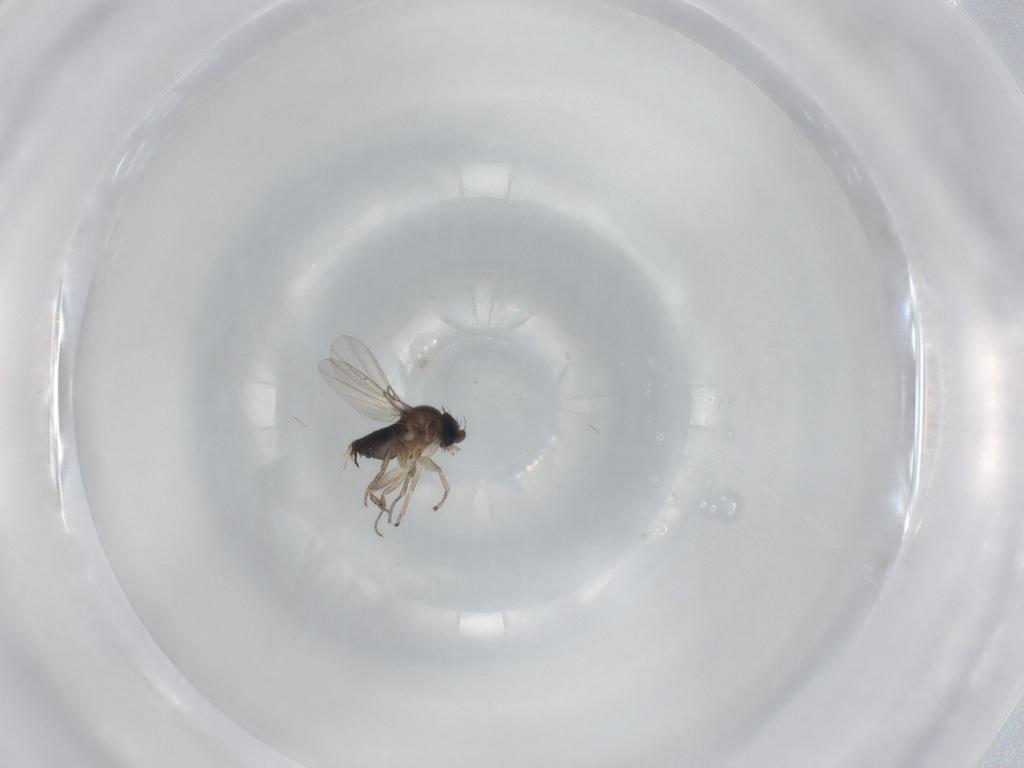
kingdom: Animalia
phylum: Arthropoda
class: Insecta
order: Diptera
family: Phoridae
